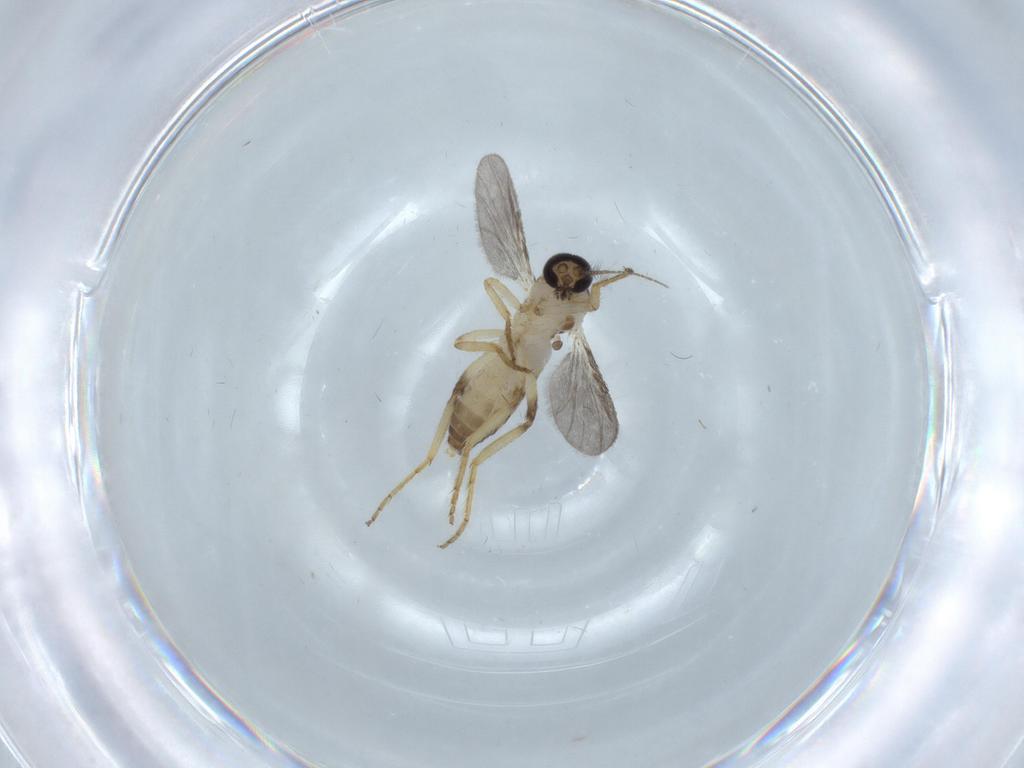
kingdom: Animalia
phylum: Arthropoda
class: Insecta
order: Diptera
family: Ceratopogonidae
